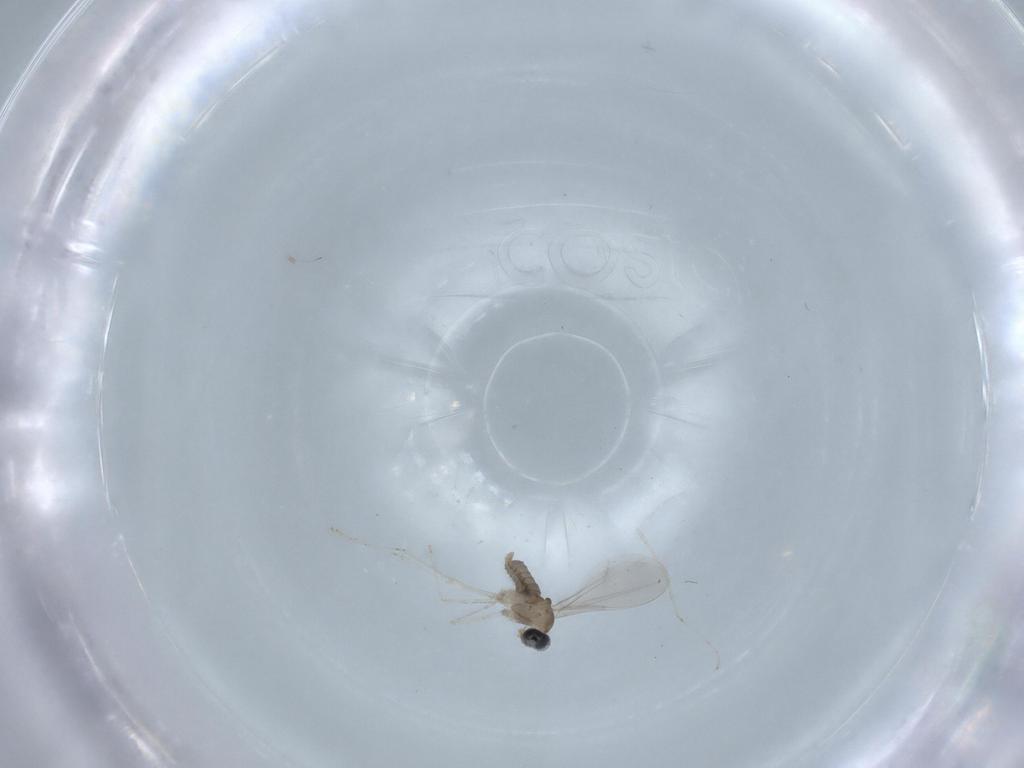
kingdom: Animalia
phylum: Arthropoda
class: Insecta
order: Diptera
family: Cecidomyiidae
